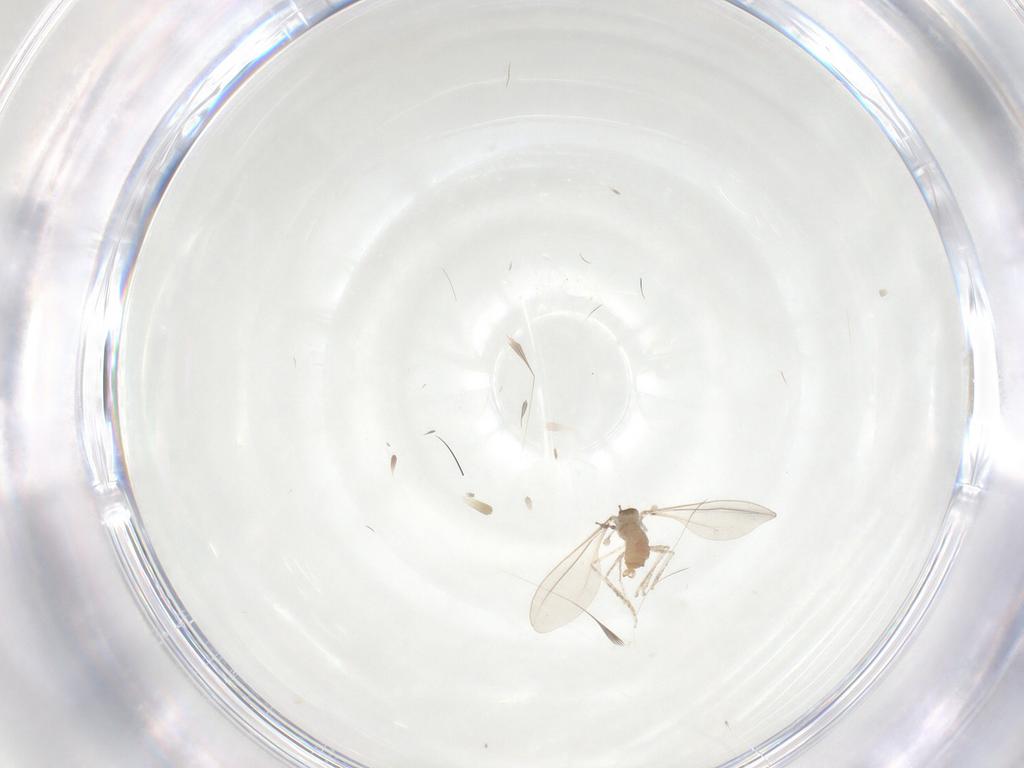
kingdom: Animalia
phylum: Arthropoda
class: Insecta
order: Diptera
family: Cecidomyiidae
